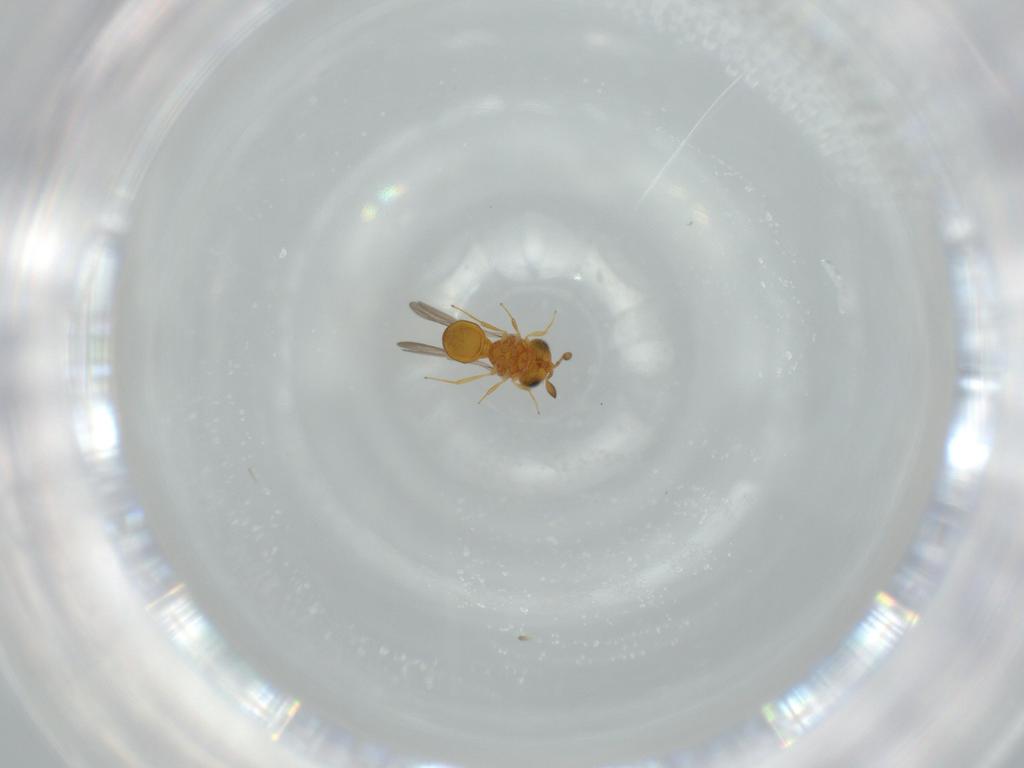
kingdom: Animalia
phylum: Arthropoda
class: Insecta
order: Hymenoptera
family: Scelionidae
